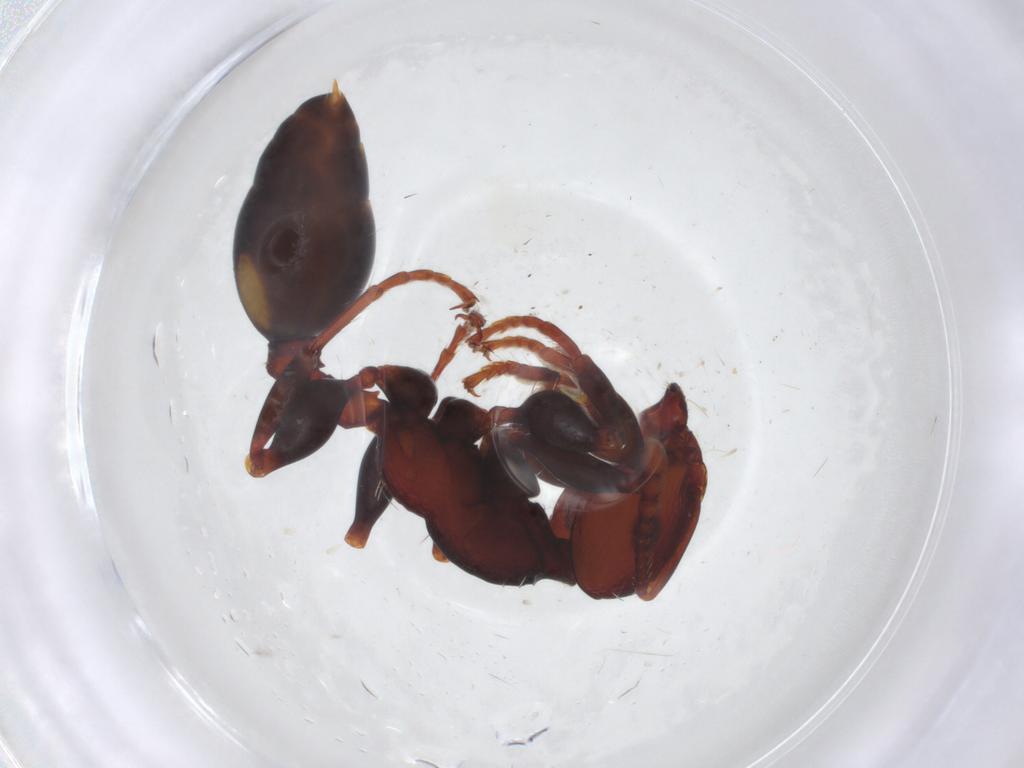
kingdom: Animalia
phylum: Arthropoda
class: Insecta
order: Hymenoptera
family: Formicidae
